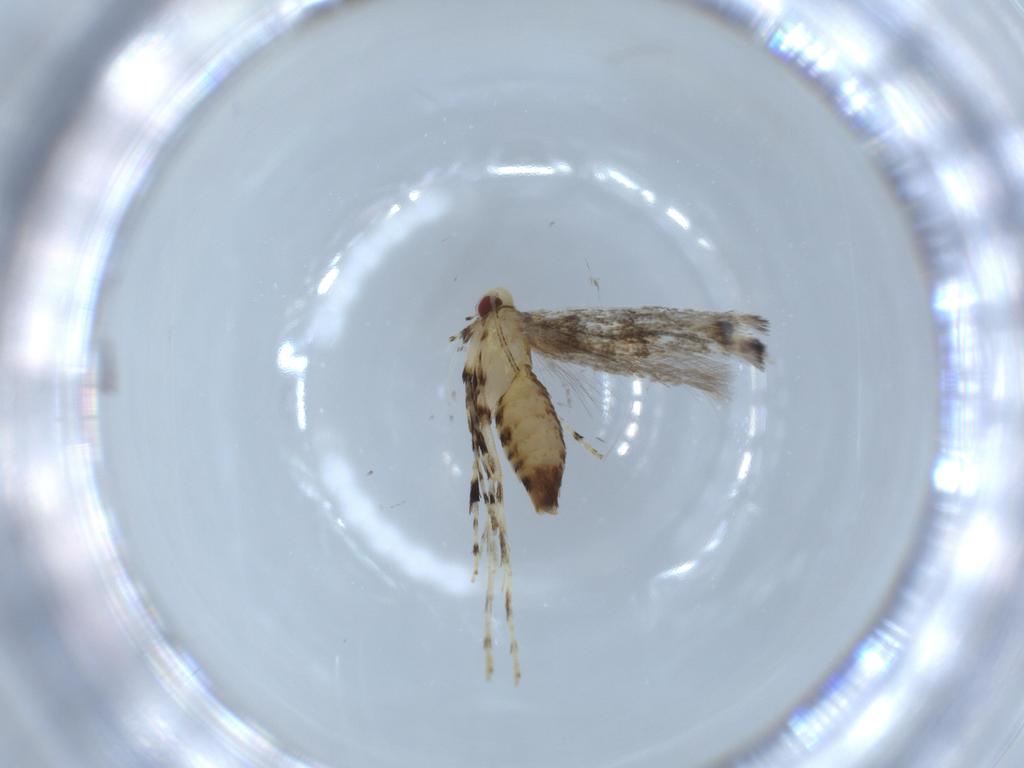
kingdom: Animalia
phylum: Arthropoda
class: Insecta
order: Lepidoptera
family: Gracillariidae
